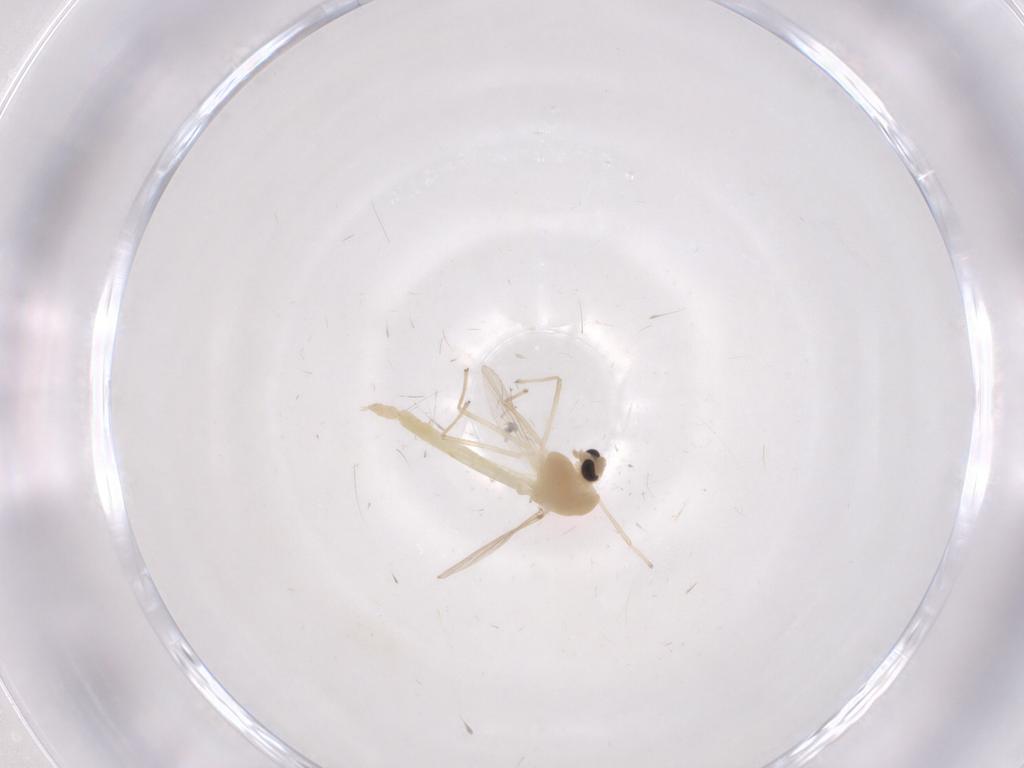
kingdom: Animalia
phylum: Arthropoda
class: Insecta
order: Diptera
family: Chironomidae
